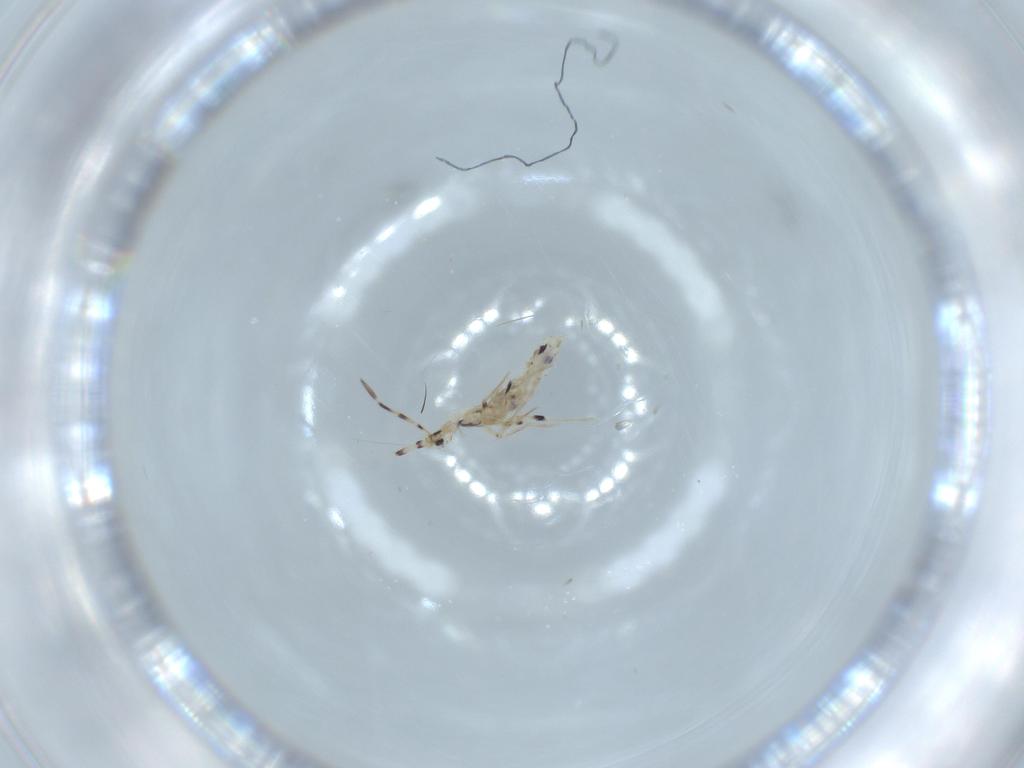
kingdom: Animalia
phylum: Arthropoda
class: Collembola
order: Entomobryomorpha
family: Entomobryidae
